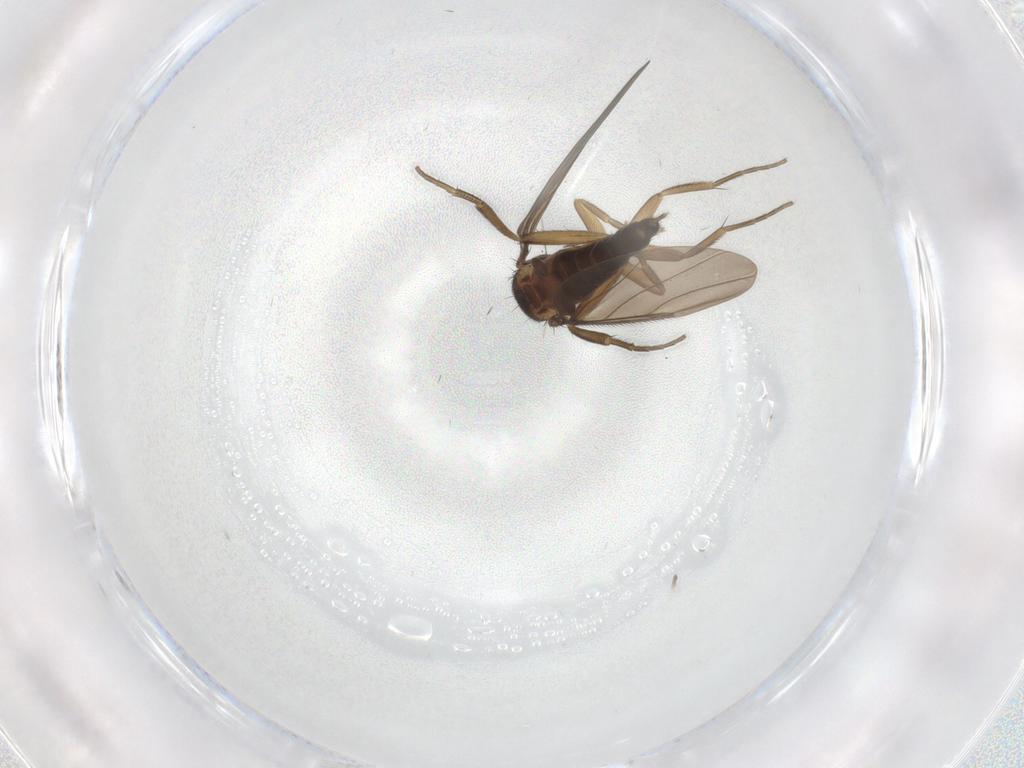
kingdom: Animalia
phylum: Arthropoda
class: Insecta
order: Diptera
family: Phoridae
